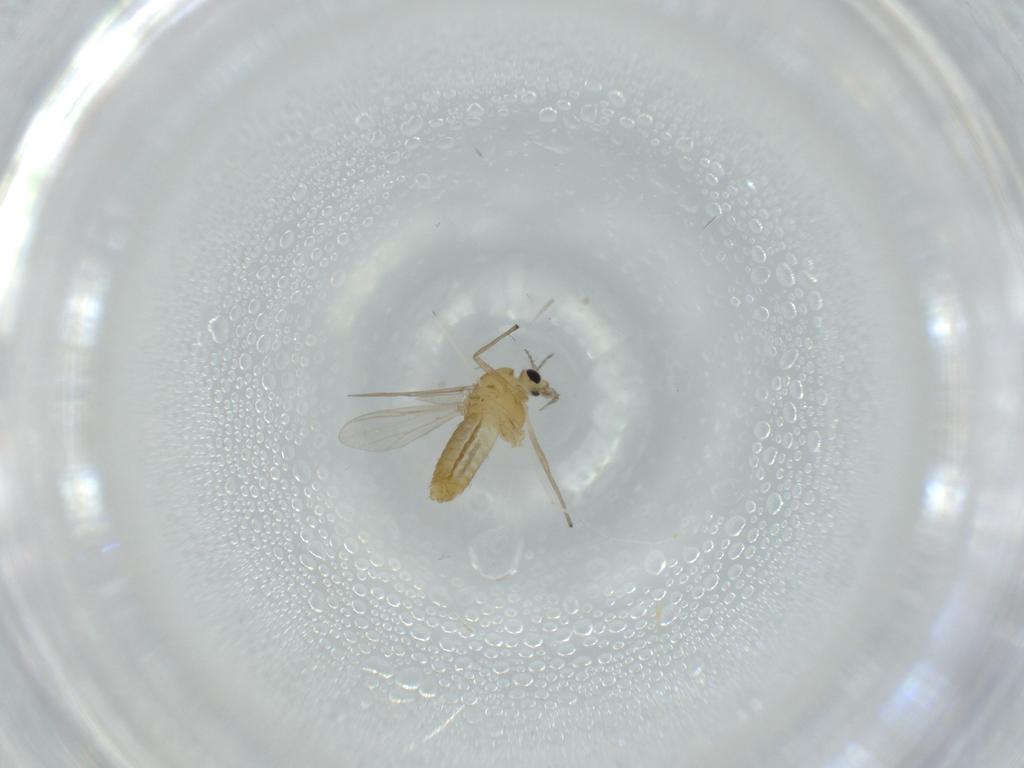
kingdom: Animalia
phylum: Arthropoda
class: Insecta
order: Diptera
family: Chironomidae
